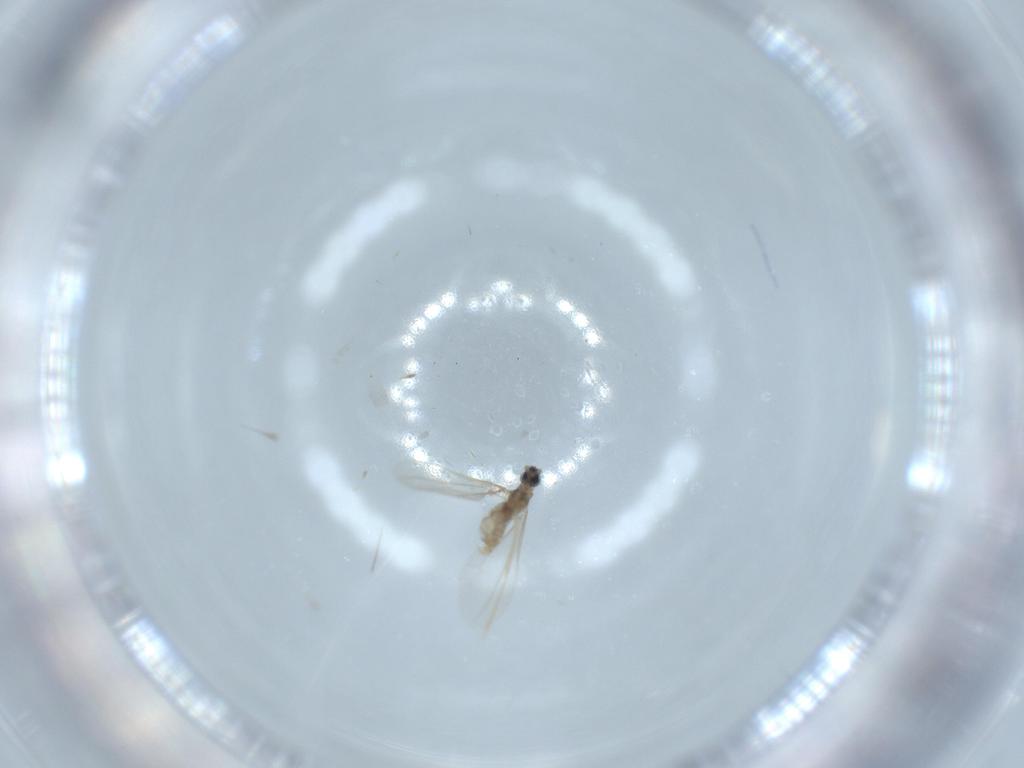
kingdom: Animalia
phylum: Arthropoda
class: Insecta
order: Diptera
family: Cecidomyiidae
